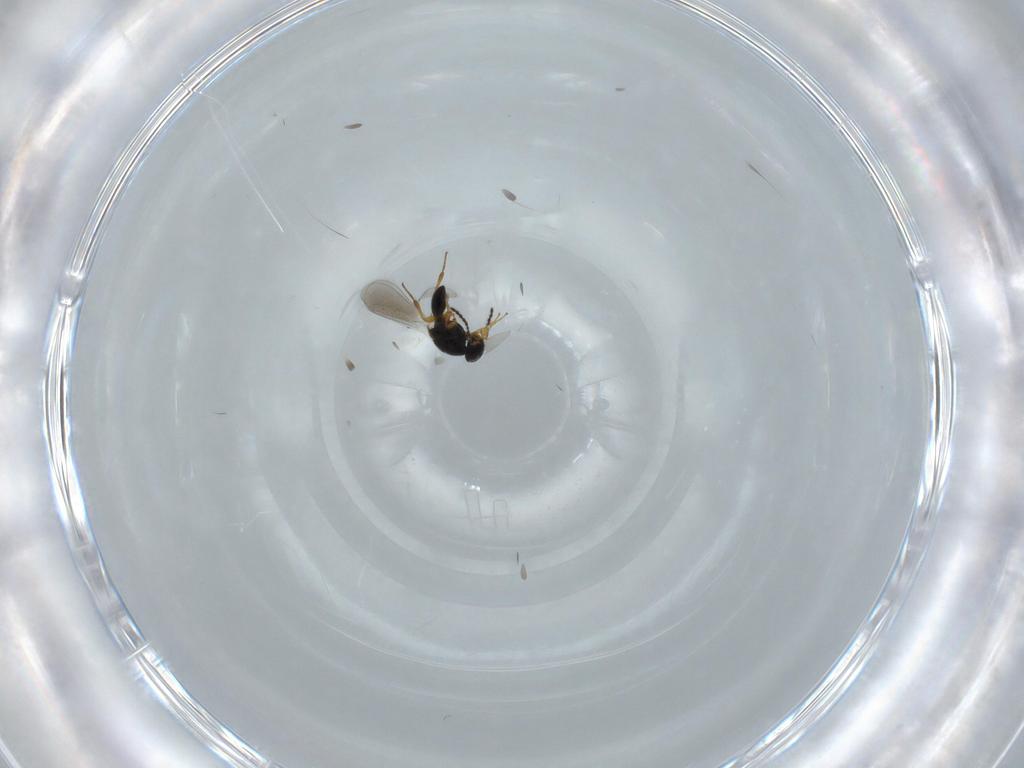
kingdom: Animalia
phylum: Arthropoda
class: Insecta
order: Hymenoptera
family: Platygastridae
